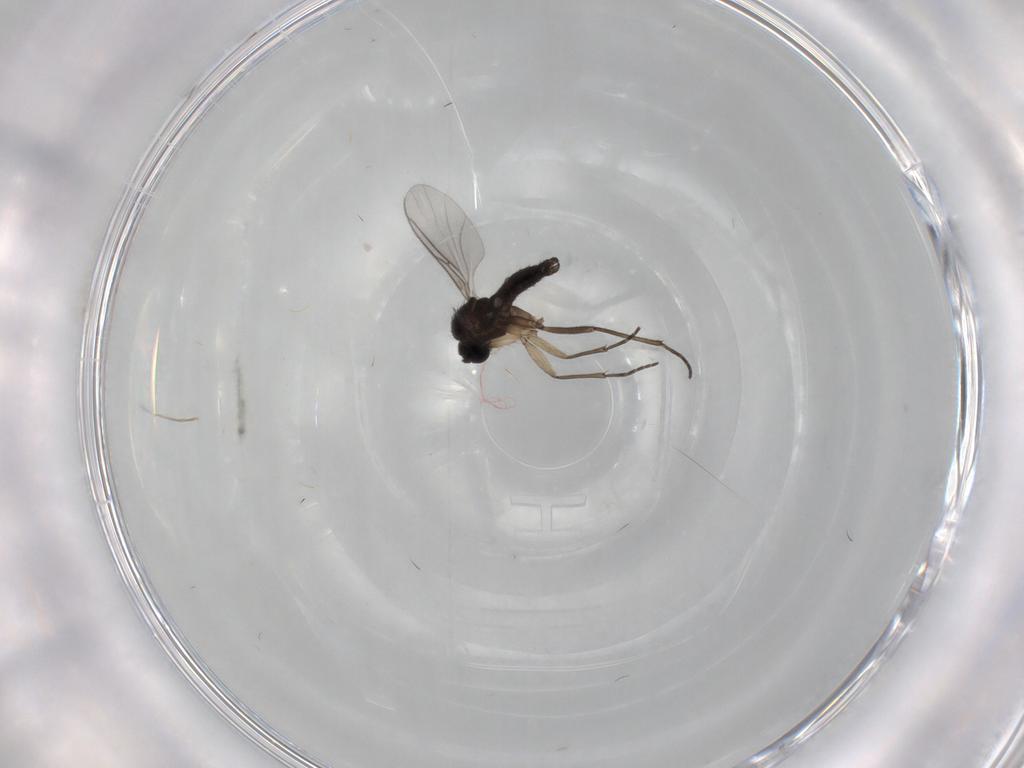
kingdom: Animalia
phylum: Arthropoda
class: Insecta
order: Diptera
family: Sciaridae
